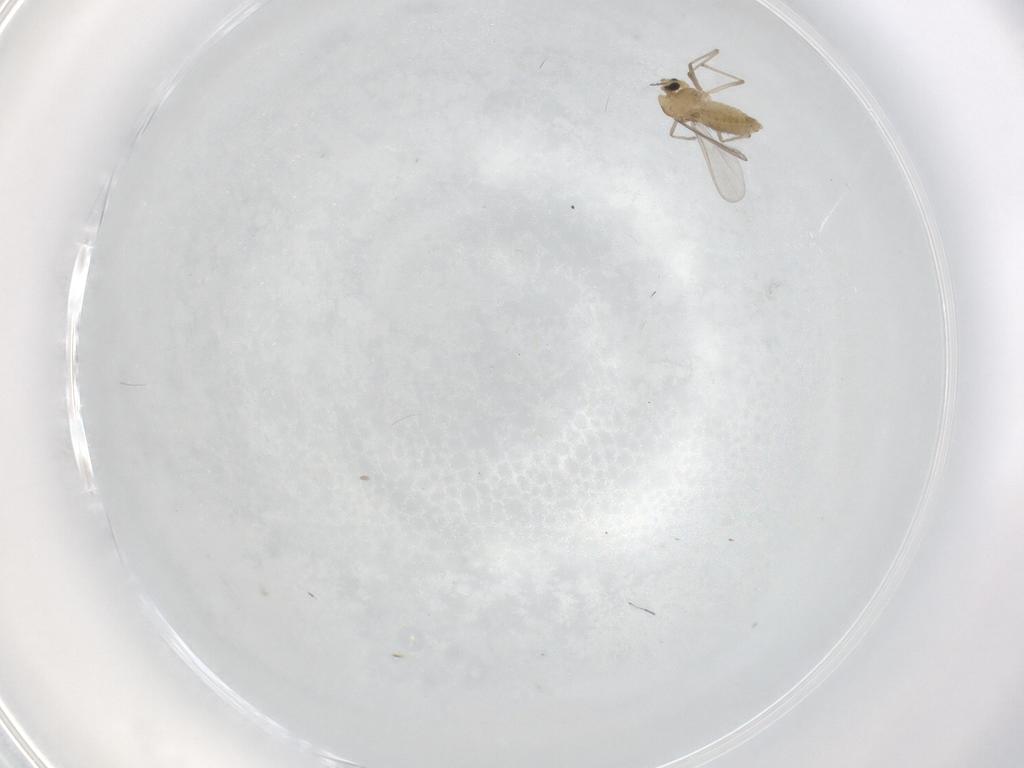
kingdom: Animalia
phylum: Arthropoda
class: Insecta
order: Diptera
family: Chironomidae
